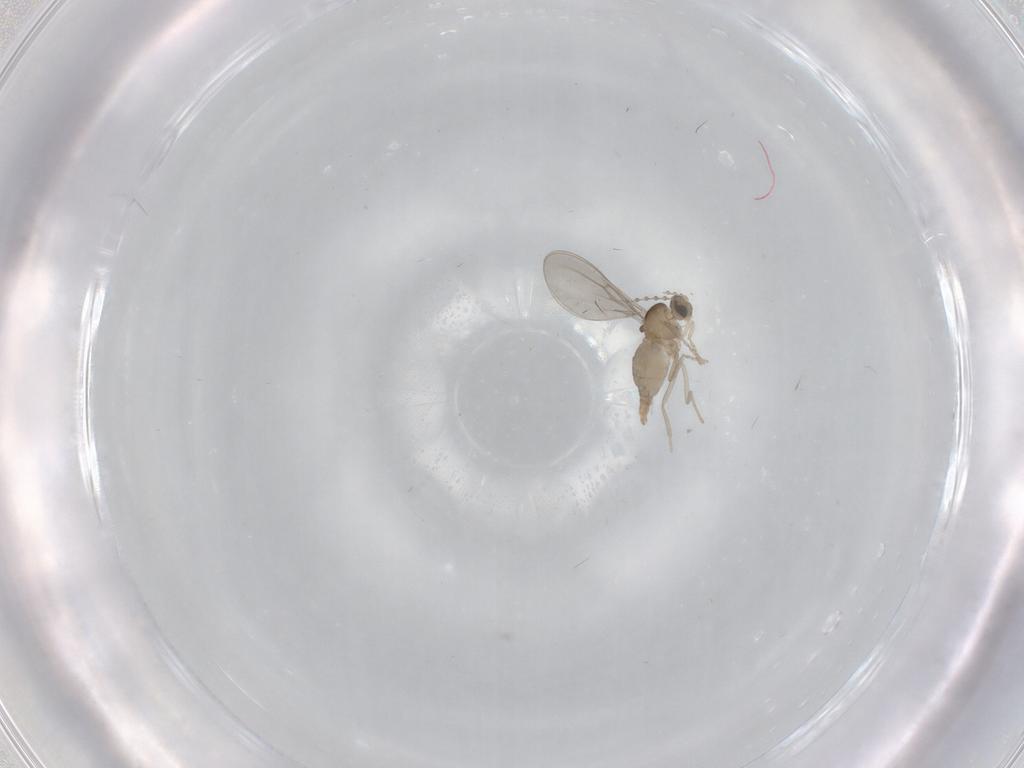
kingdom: Animalia
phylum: Arthropoda
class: Insecta
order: Diptera
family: Cecidomyiidae
